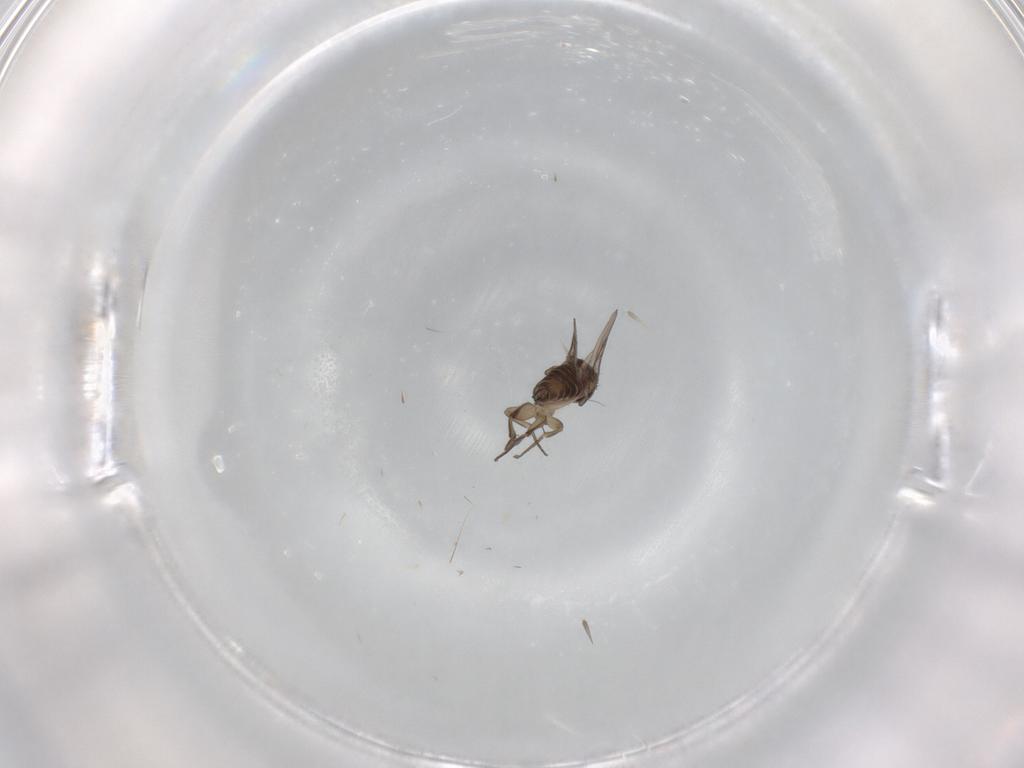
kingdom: Animalia
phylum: Arthropoda
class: Insecta
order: Diptera
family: Phoridae
